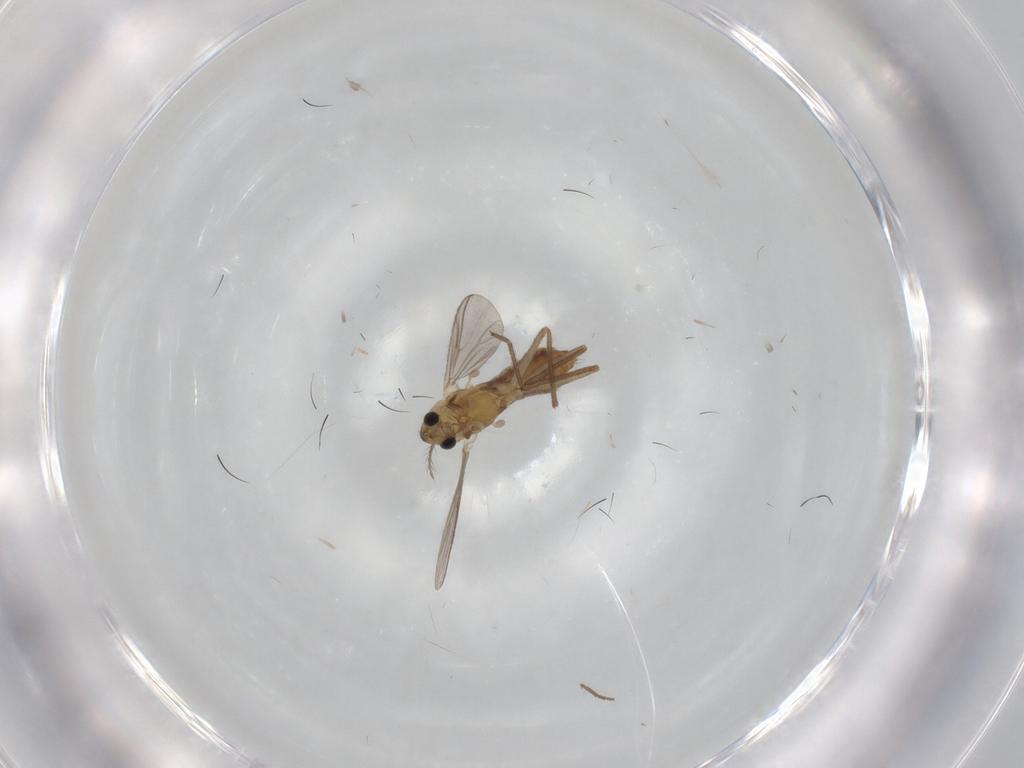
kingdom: Animalia
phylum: Arthropoda
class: Insecta
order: Diptera
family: Chironomidae
